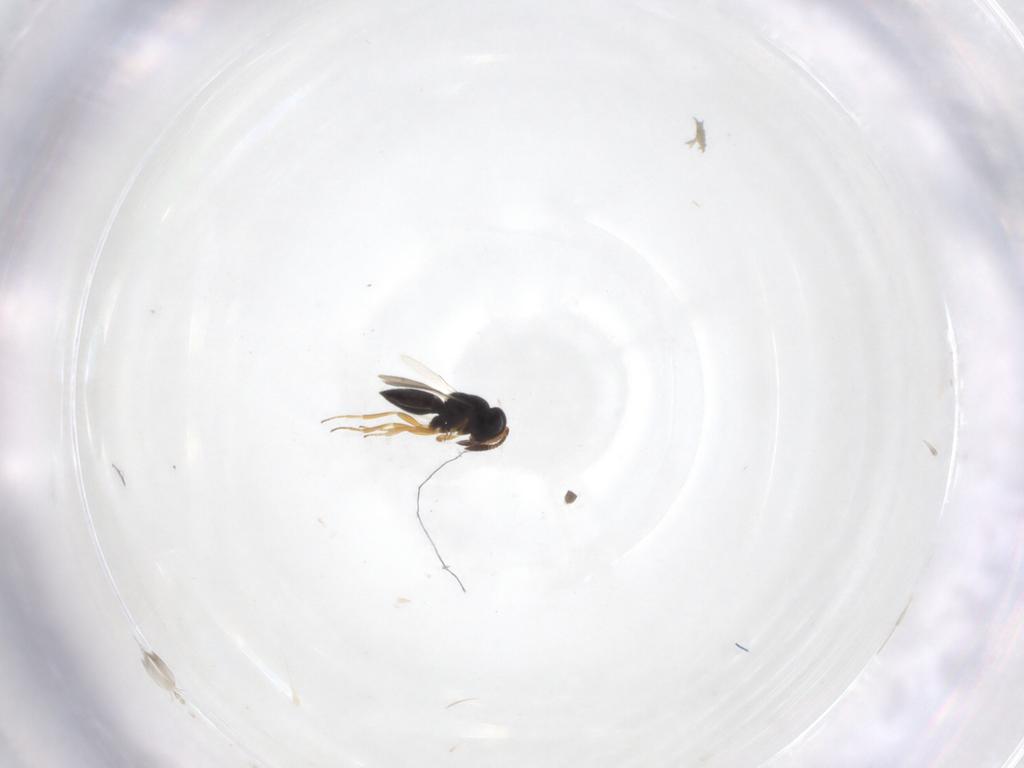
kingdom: Animalia
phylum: Arthropoda
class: Insecta
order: Hymenoptera
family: Scelionidae
